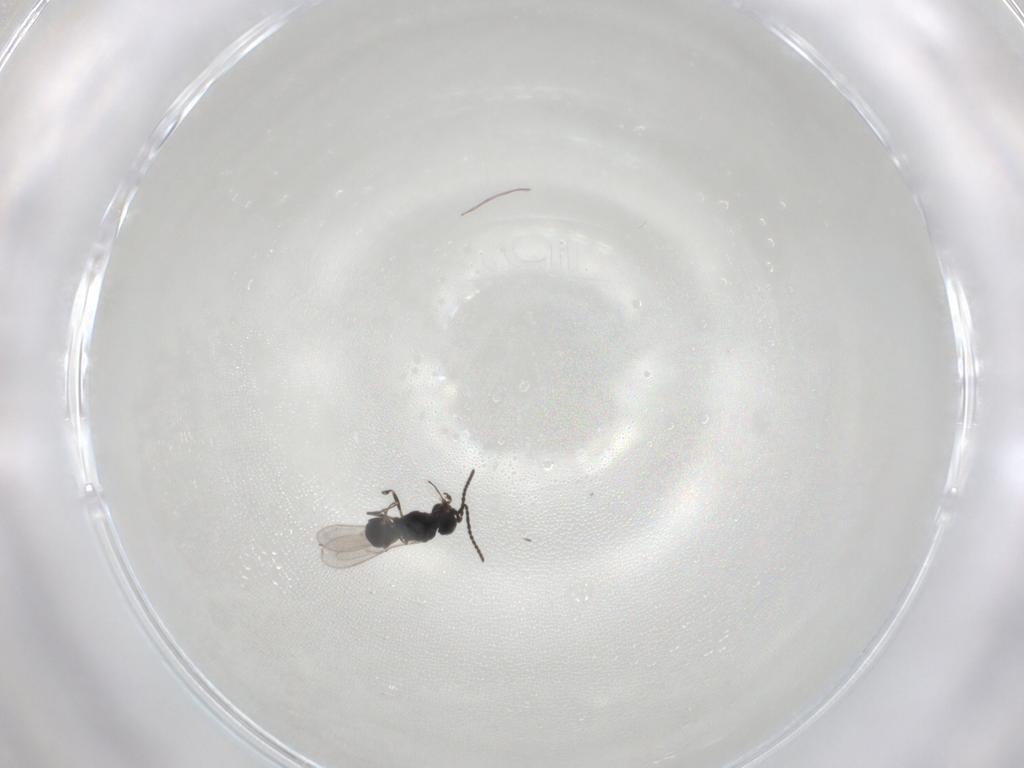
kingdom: Animalia
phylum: Arthropoda
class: Insecta
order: Hymenoptera
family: Scelionidae
